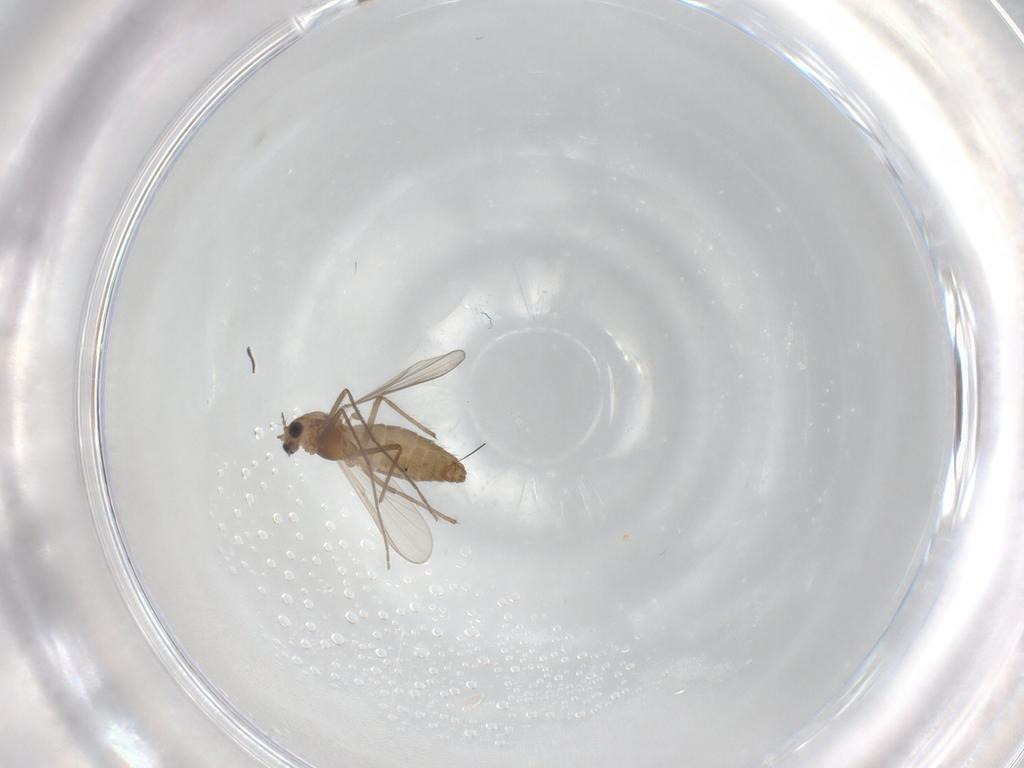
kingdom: Animalia
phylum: Arthropoda
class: Insecta
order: Diptera
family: Chironomidae
